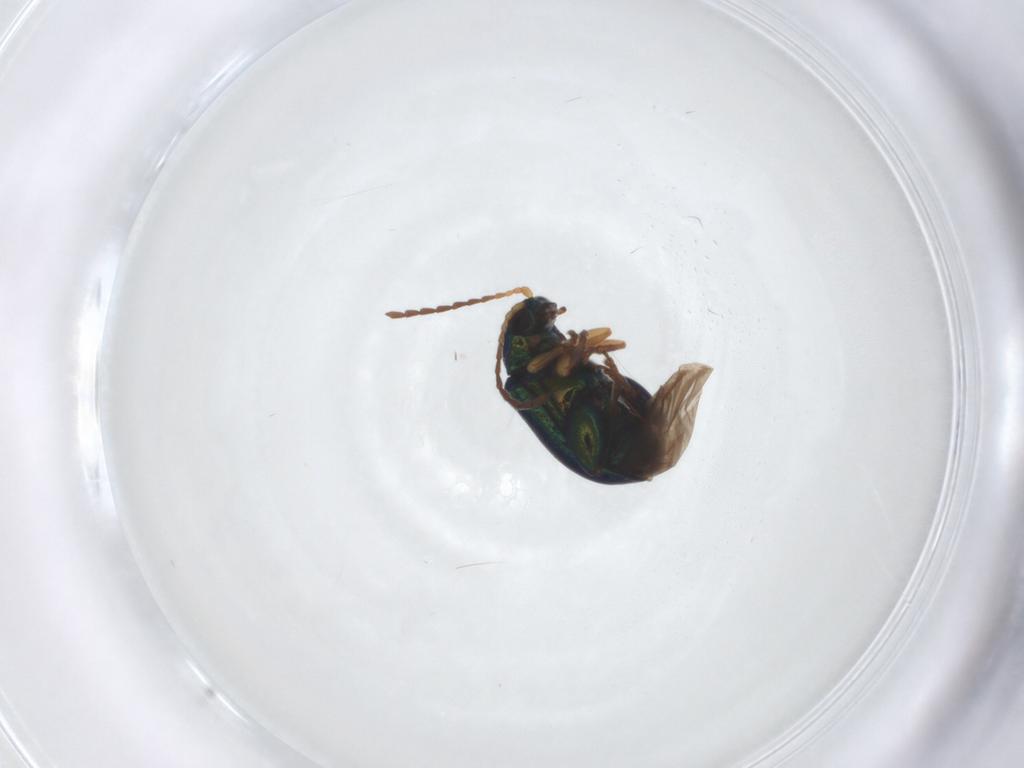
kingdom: Animalia
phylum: Arthropoda
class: Insecta
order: Coleoptera
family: Chrysomelidae
